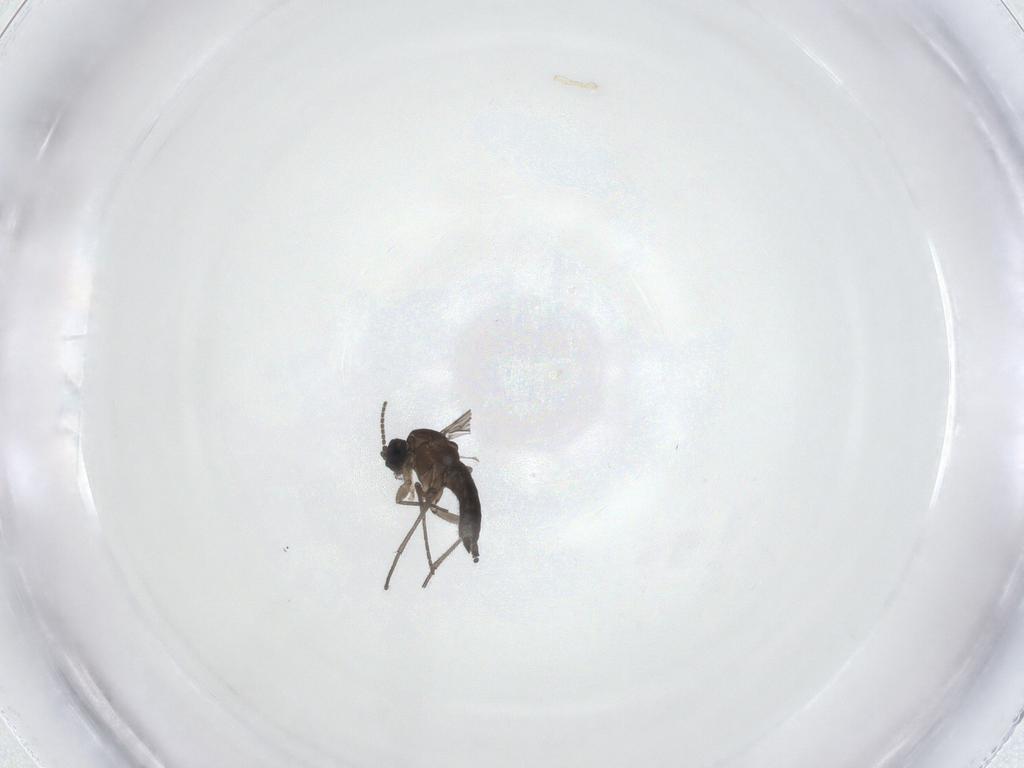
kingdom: Animalia
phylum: Arthropoda
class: Insecta
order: Diptera
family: Sciaridae
